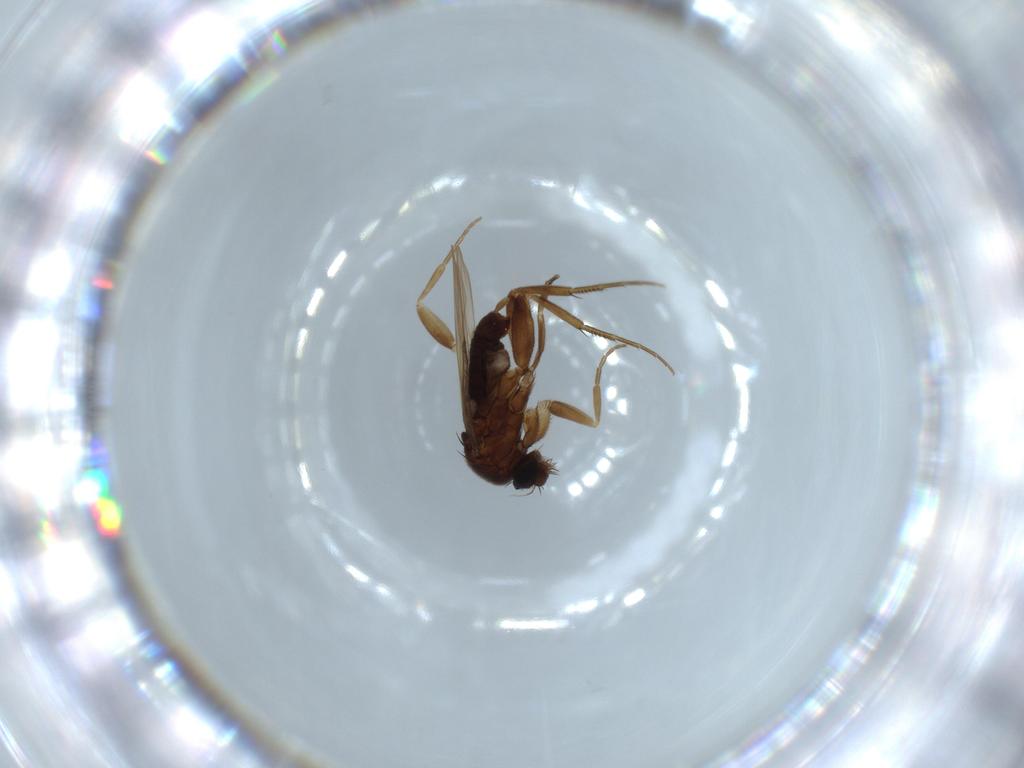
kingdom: Animalia
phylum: Arthropoda
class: Insecta
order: Diptera
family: Phoridae
